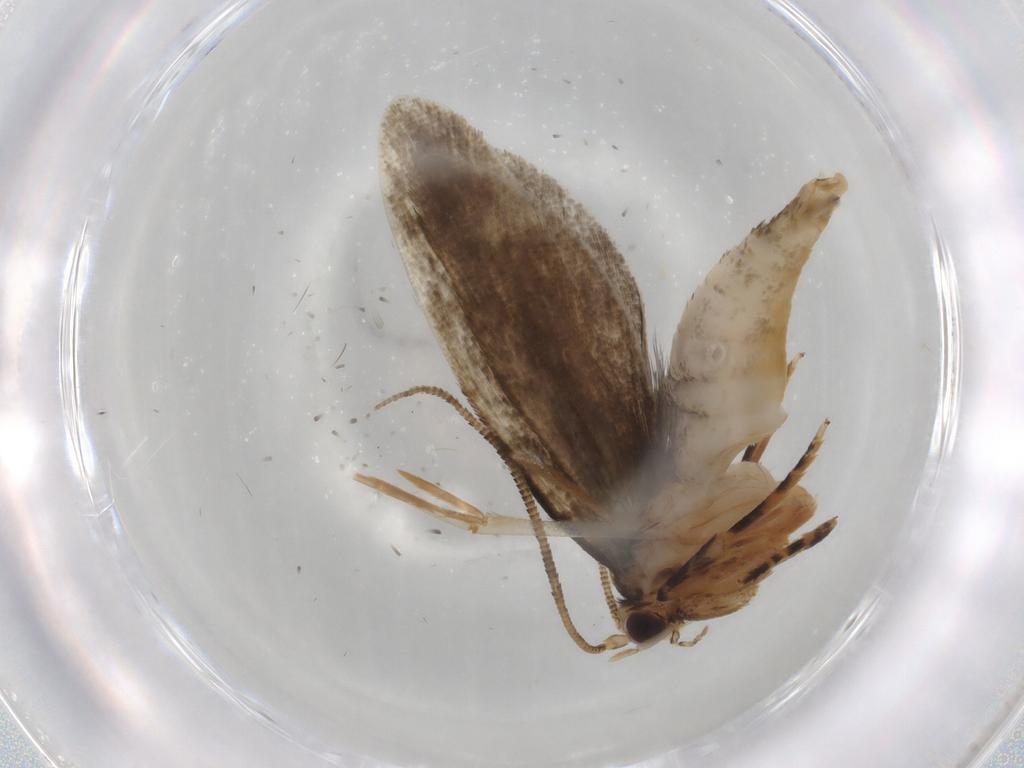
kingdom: Animalia
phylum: Arthropoda
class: Insecta
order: Lepidoptera
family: Tineidae
